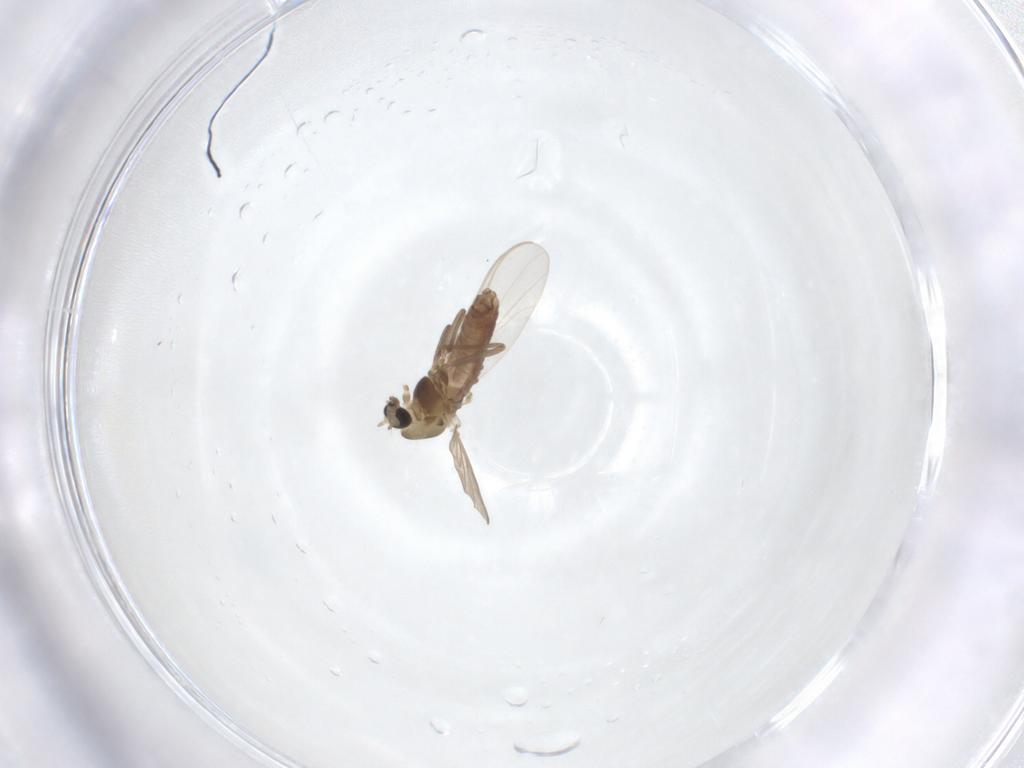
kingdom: Animalia
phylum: Arthropoda
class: Insecta
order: Diptera
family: Chironomidae
